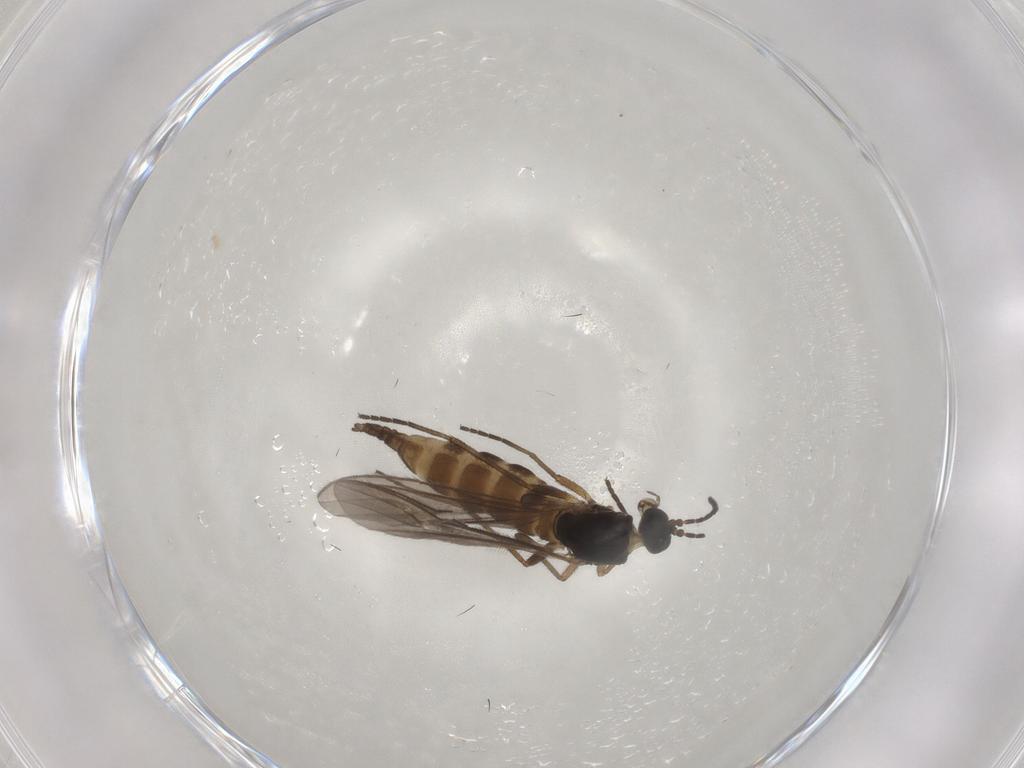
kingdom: Animalia
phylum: Arthropoda
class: Insecta
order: Diptera
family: Sciaridae
